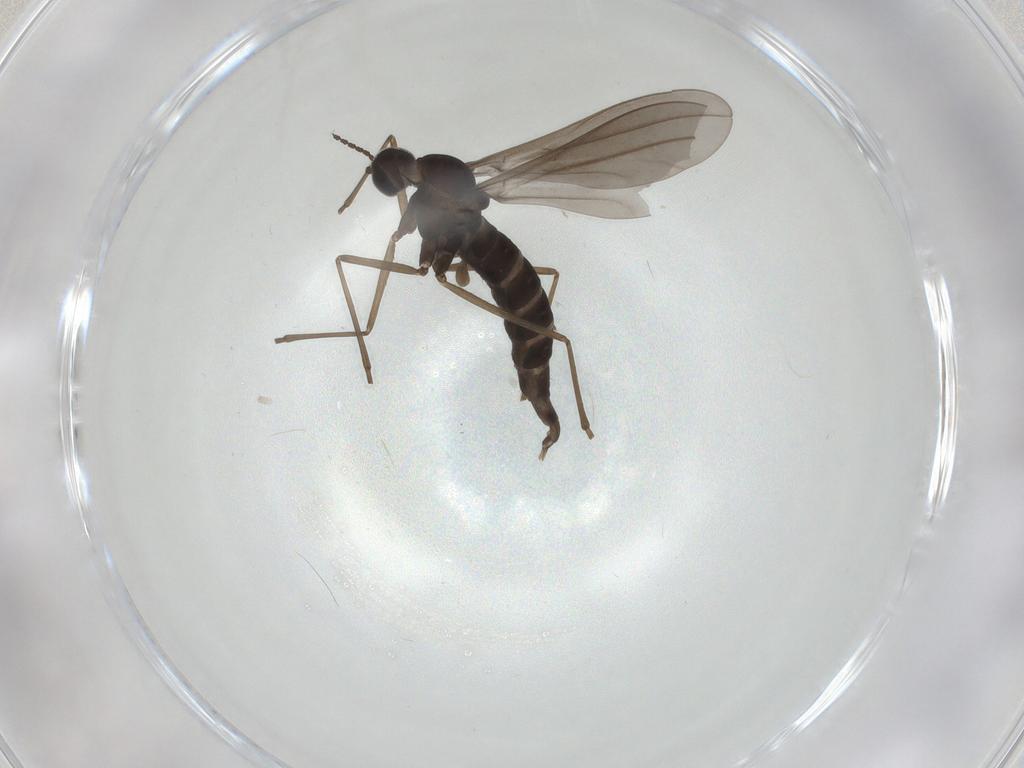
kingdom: Animalia
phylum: Arthropoda
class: Insecta
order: Diptera
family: Cecidomyiidae
